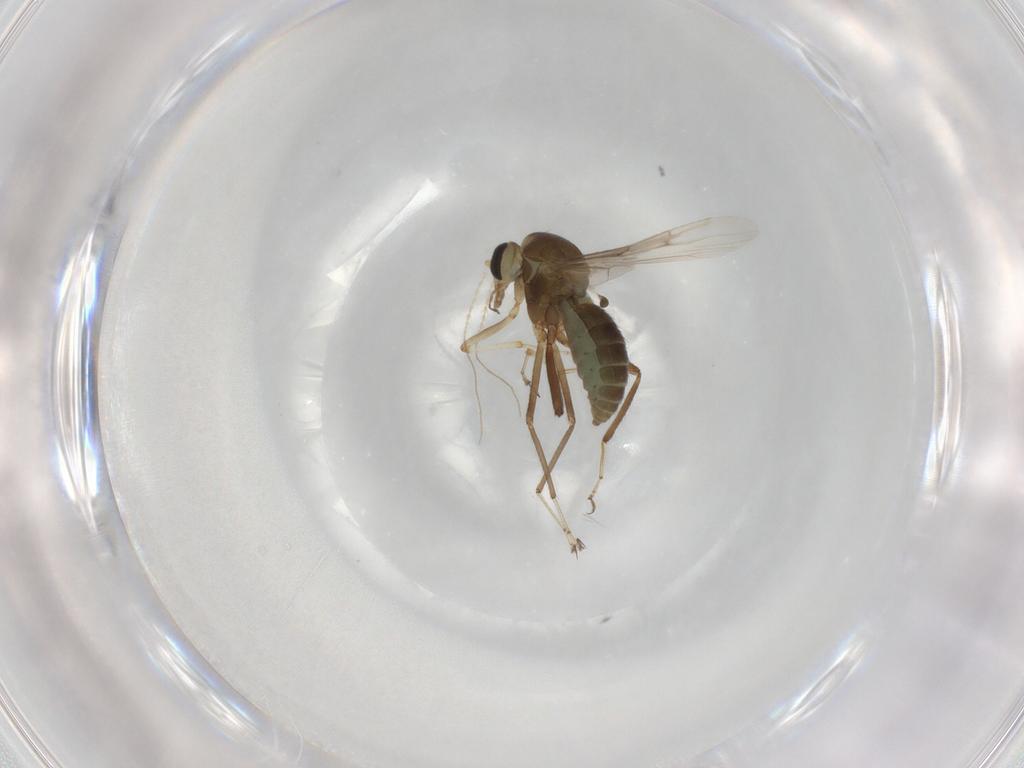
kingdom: Animalia
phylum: Arthropoda
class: Insecta
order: Diptera
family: Ceratopogonidae
